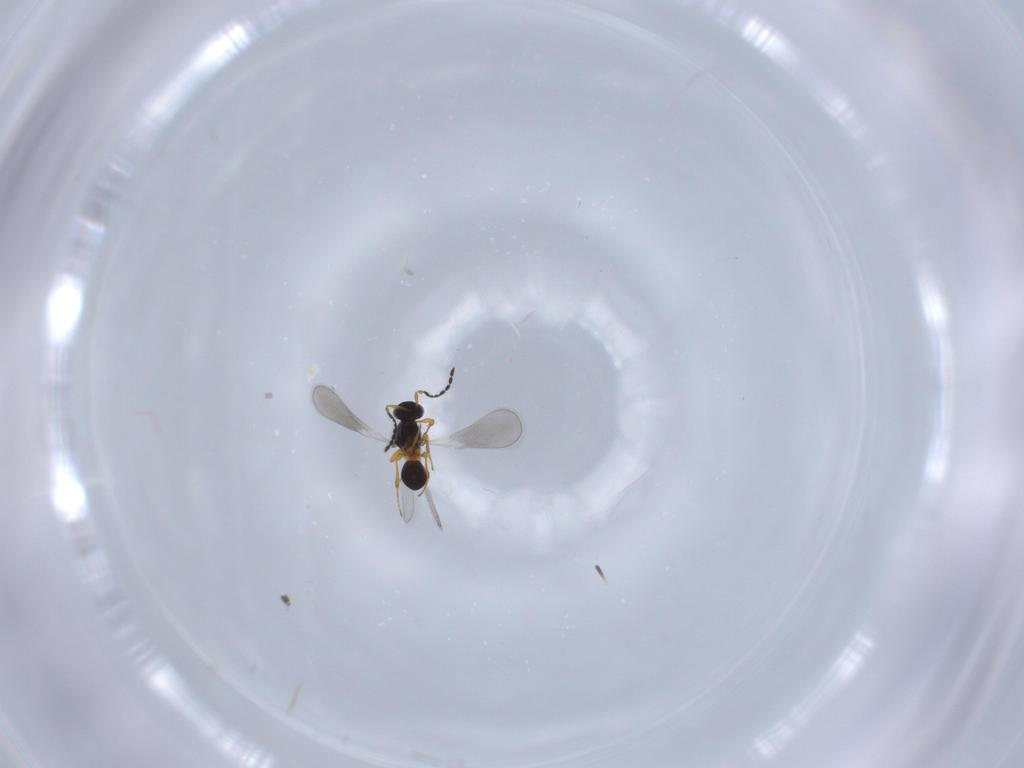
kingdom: Animalia
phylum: Arthropoda
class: Insecta
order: Hymenoptera
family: Platygastridae
